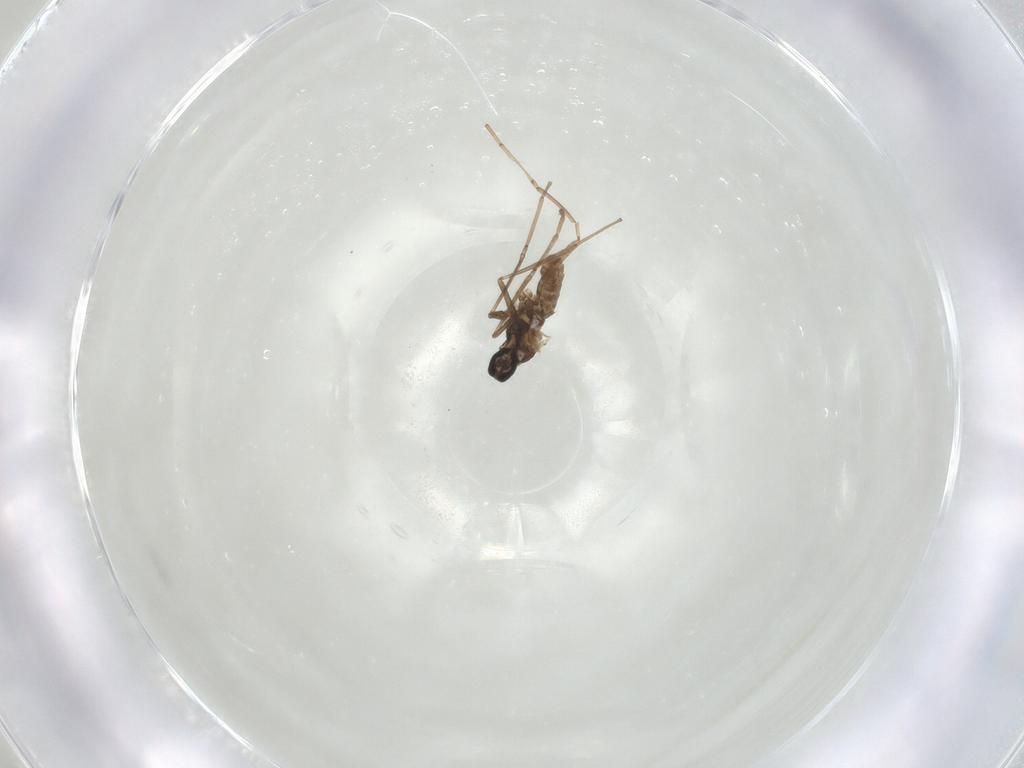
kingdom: Animalia
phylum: Arthropoda
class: Insecta
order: Diptera
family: Cecidomyiidae
